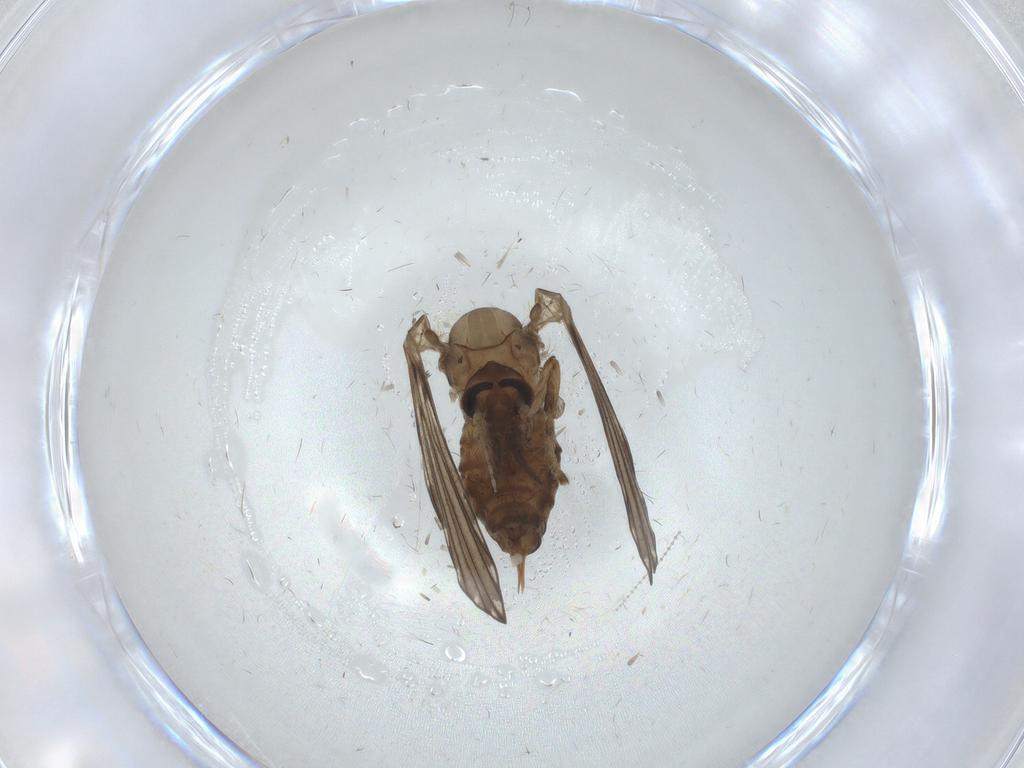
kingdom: Animalia
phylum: Arthropoda
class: Insecta
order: Diptera
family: Psychodidae
